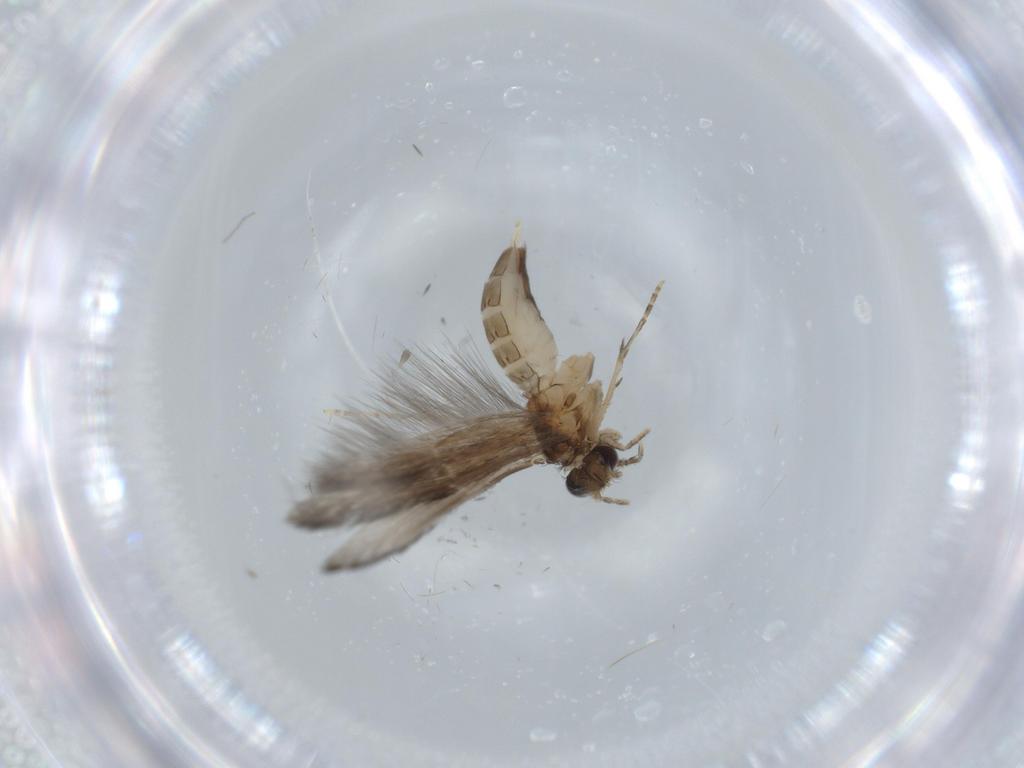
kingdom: Animalia
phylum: Arthropoda
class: Insecta
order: Trichoptera
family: Hydroptilidae
